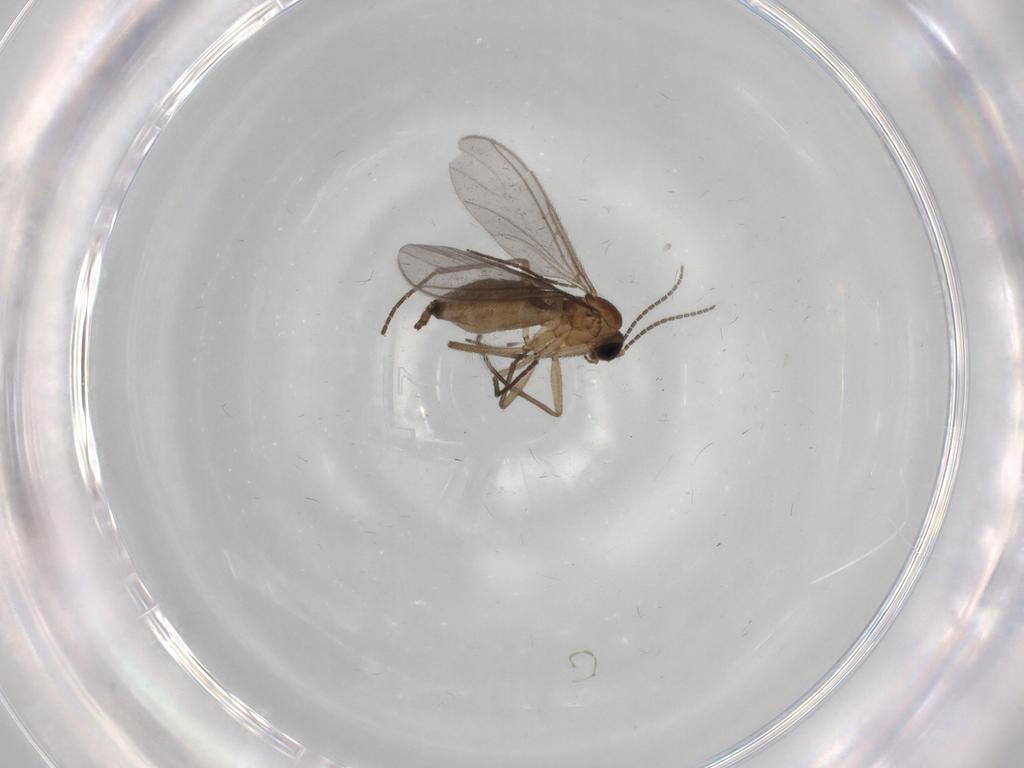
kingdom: Animalia
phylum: Arthropoda
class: Insecta
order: Diptera
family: Sciaridae
